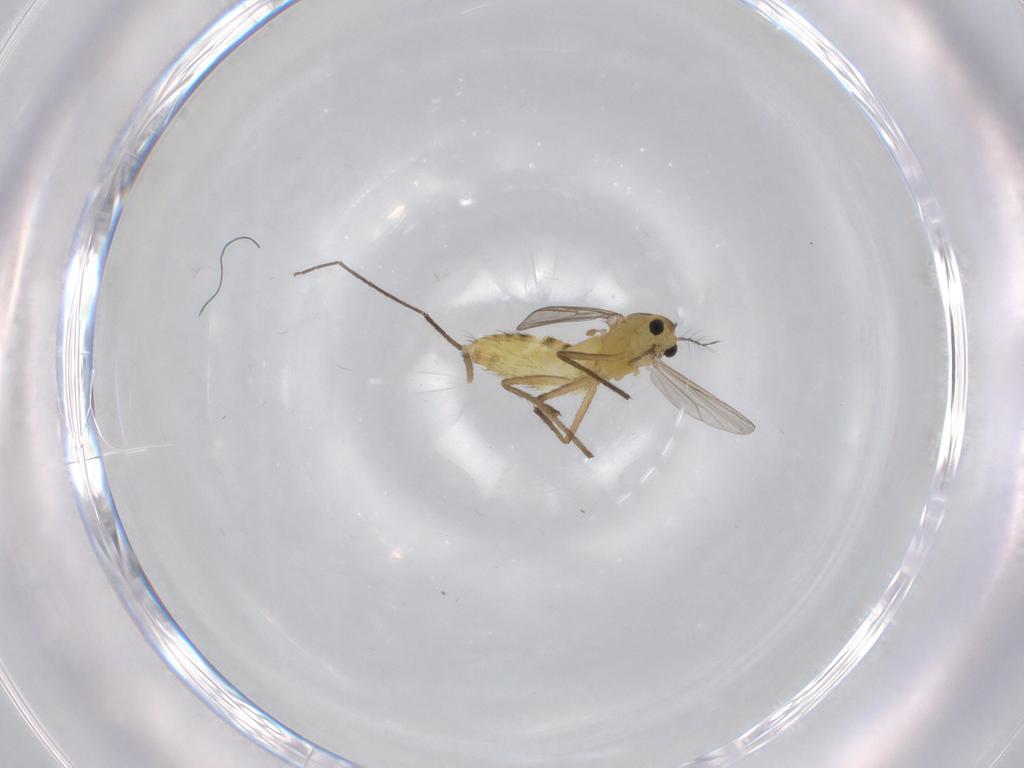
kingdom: Animalia
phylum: Arthropoda
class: Insecta
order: Diptera
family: Chironomidae
